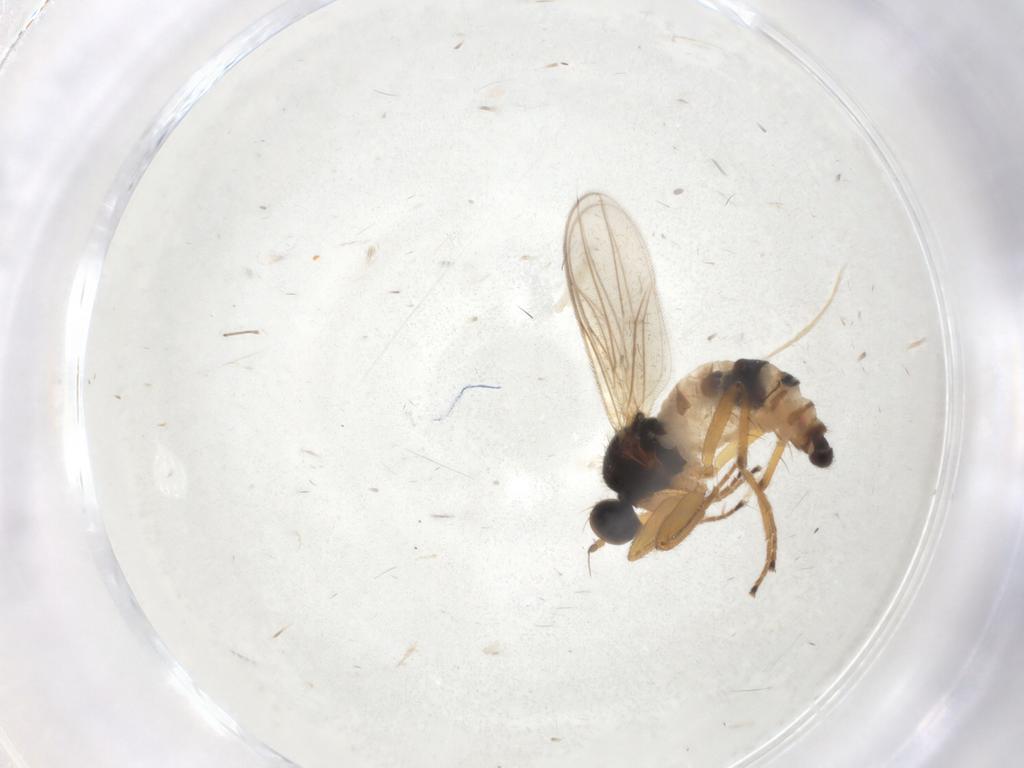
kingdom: Animalia
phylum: Arthropoda
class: Insecta
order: Diptera
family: Hybotidae
